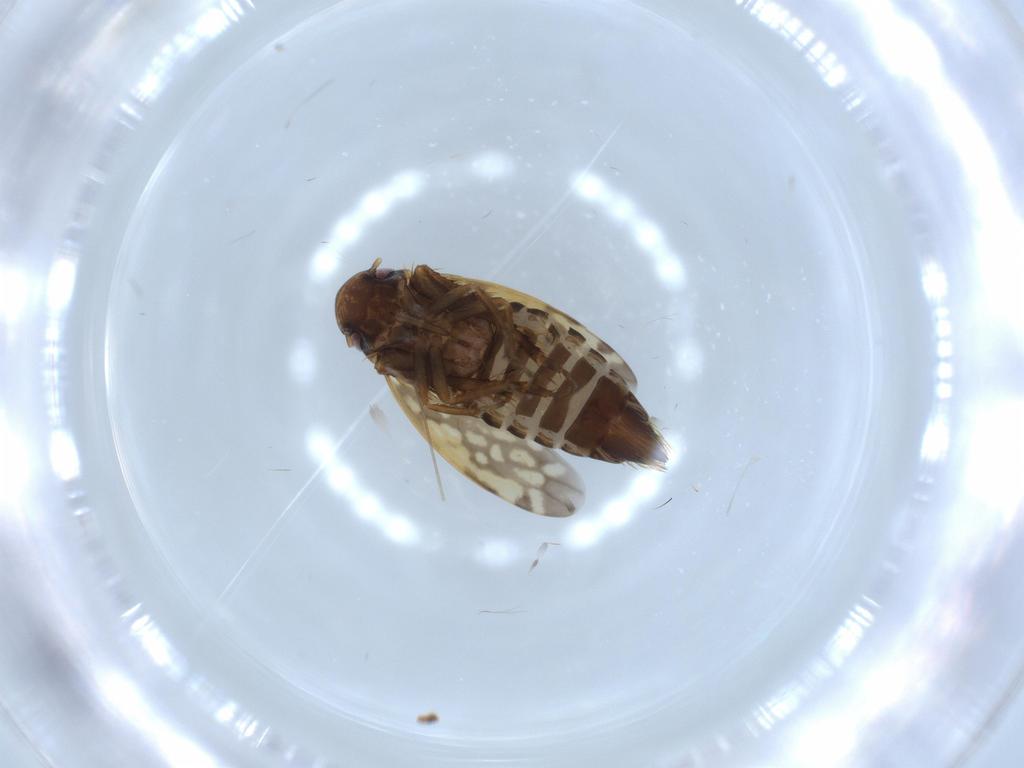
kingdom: Animalia
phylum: Arthropoda
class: Insecta
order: Hemiptera
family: Cicadellidae
